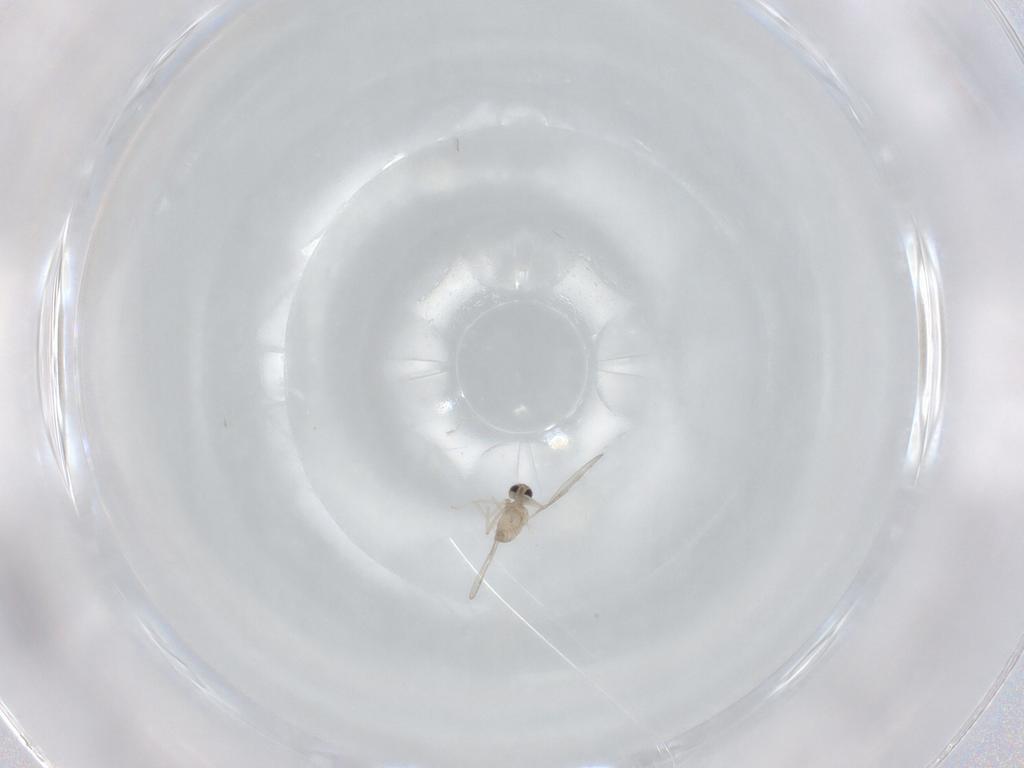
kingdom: Animalia
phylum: Arthropoda
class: Insecta
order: Diptera
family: Cecidomyiidae
